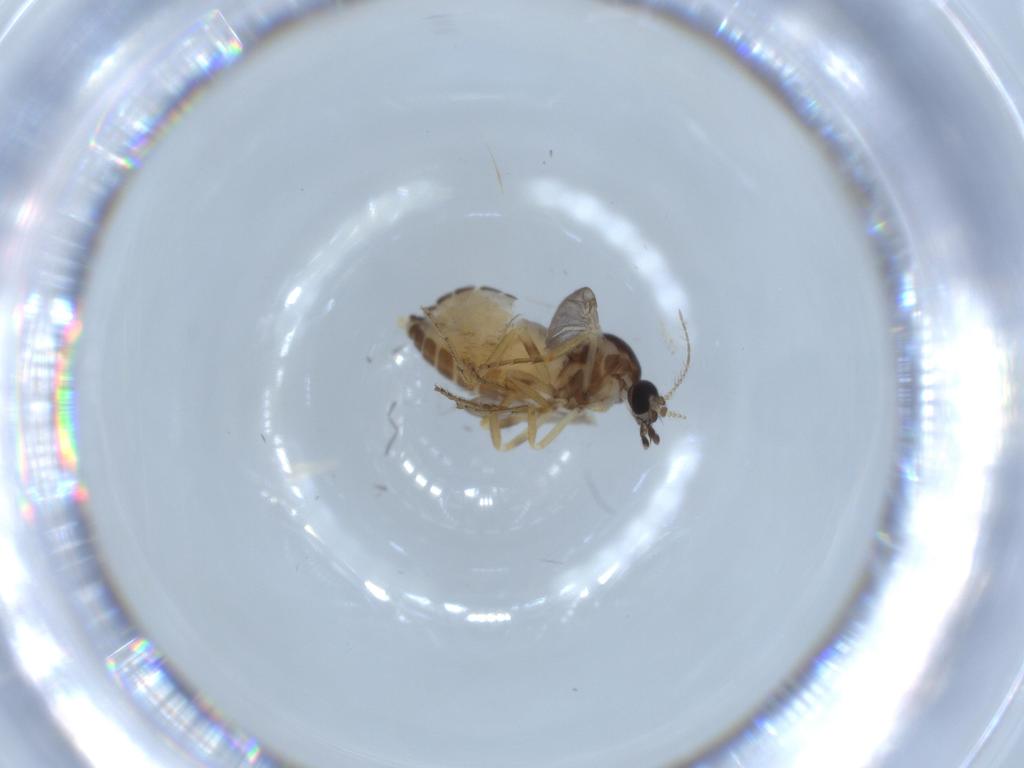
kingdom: Animalia
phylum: Arthropoda
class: Insecta
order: Diptera
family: Ceratopogonidae
